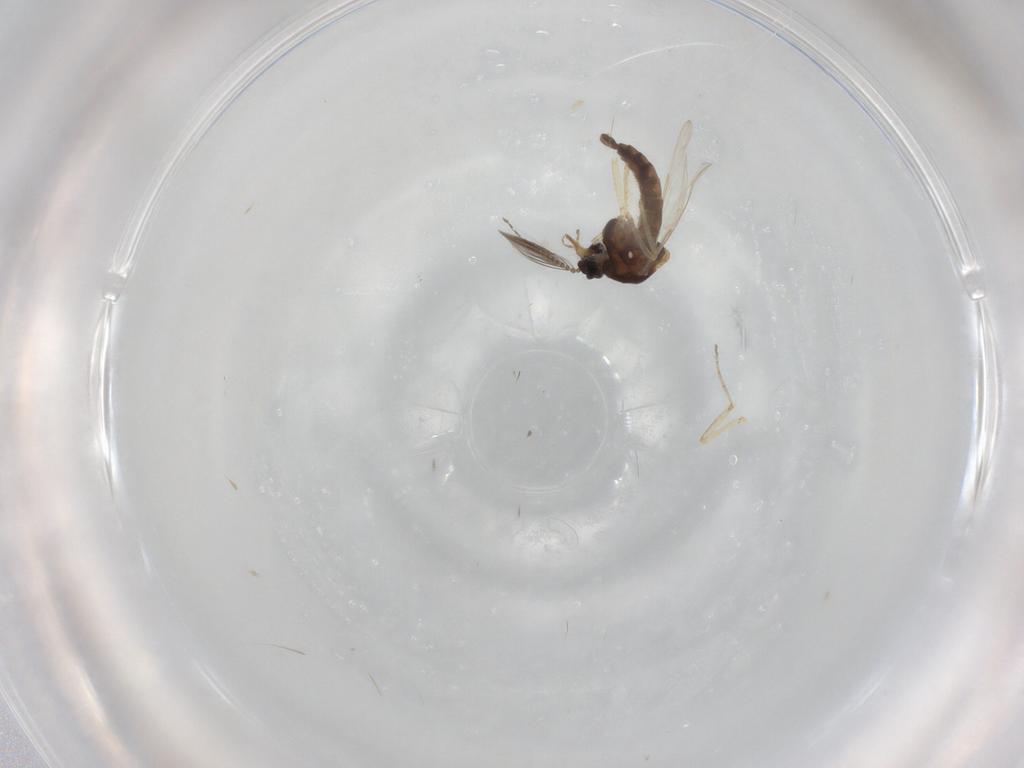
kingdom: Animalia
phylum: Arthropoda
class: Insecta
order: Diptera
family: Ceratopogonidae
